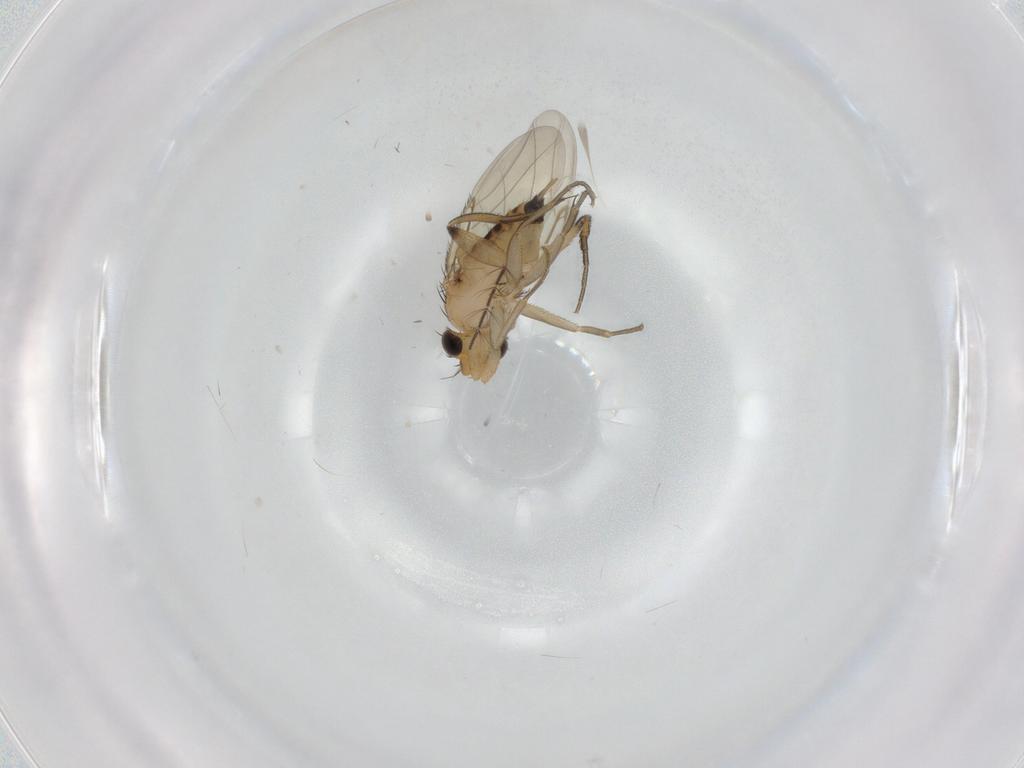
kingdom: Animalia
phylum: Arthropoda
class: Insecta
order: Diptera
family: Phoridae
